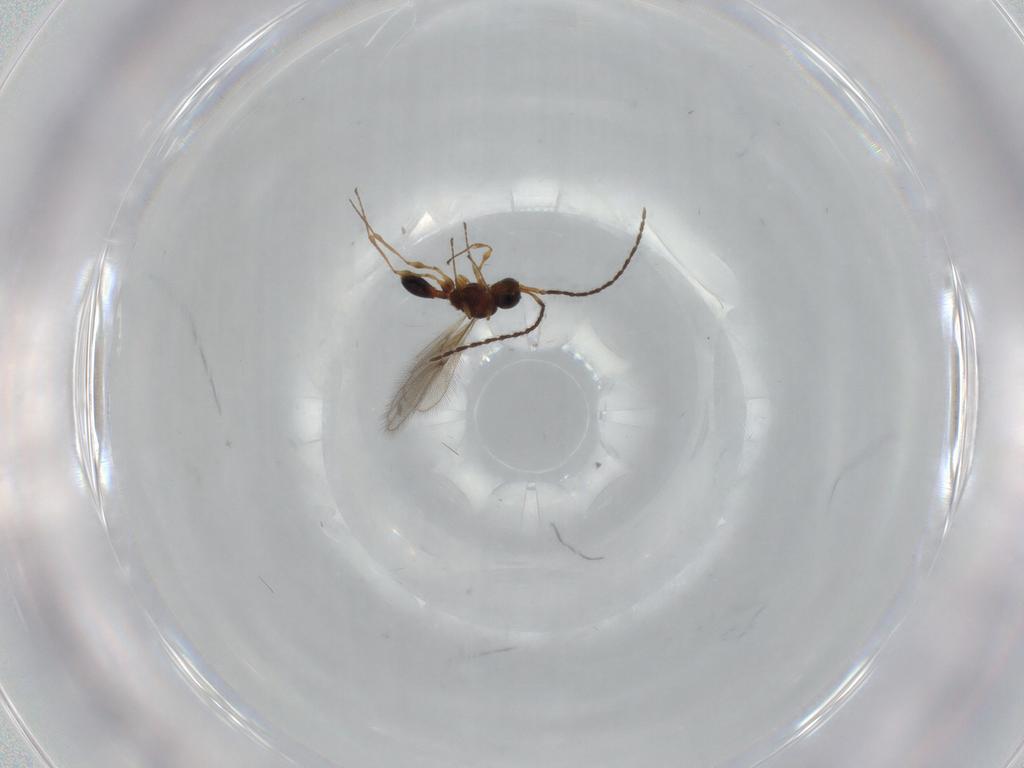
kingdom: Animalia
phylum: Arthropoda
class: Insecta
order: Hymenoptera
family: Diapriidae
